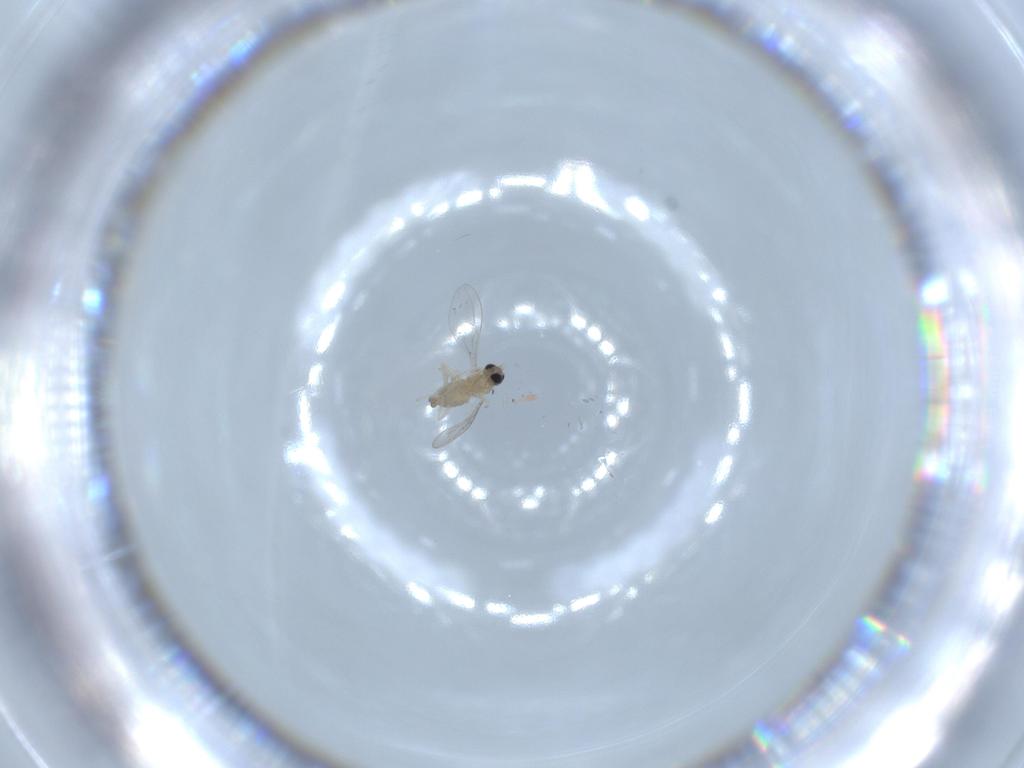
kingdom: Animalia
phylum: Arthropoda
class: Insecta
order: Diptera
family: Cecidomyiidae
